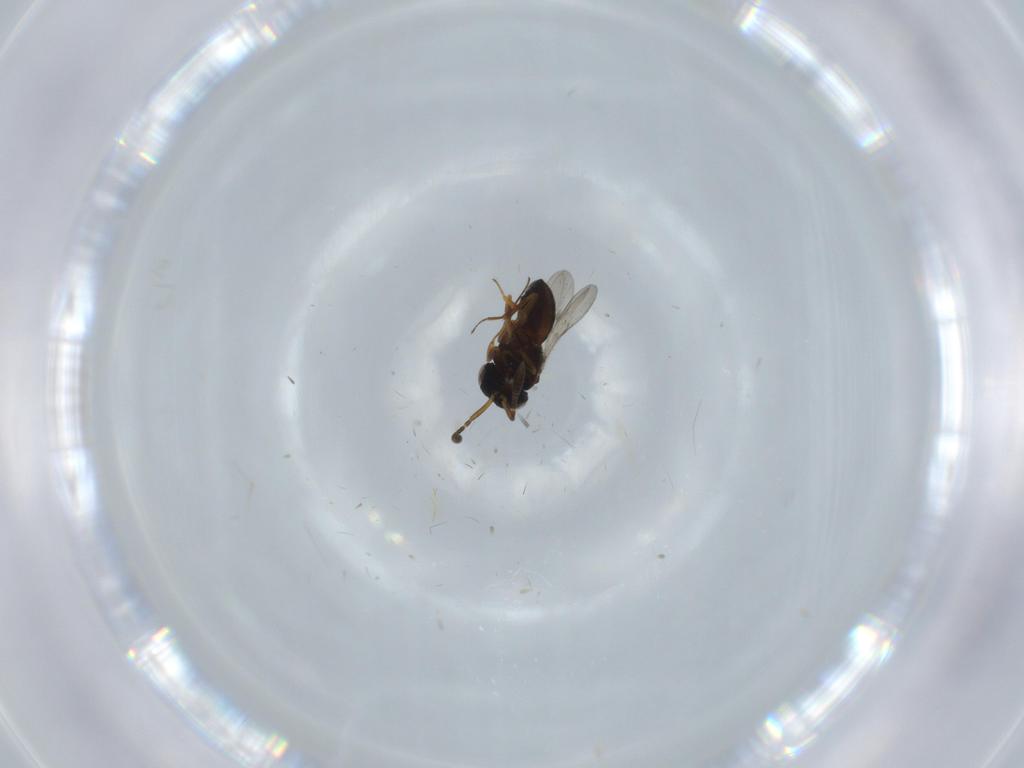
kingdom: Animalia
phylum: Arthropoda
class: Insecta
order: Coleoptera
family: Curculionidae
